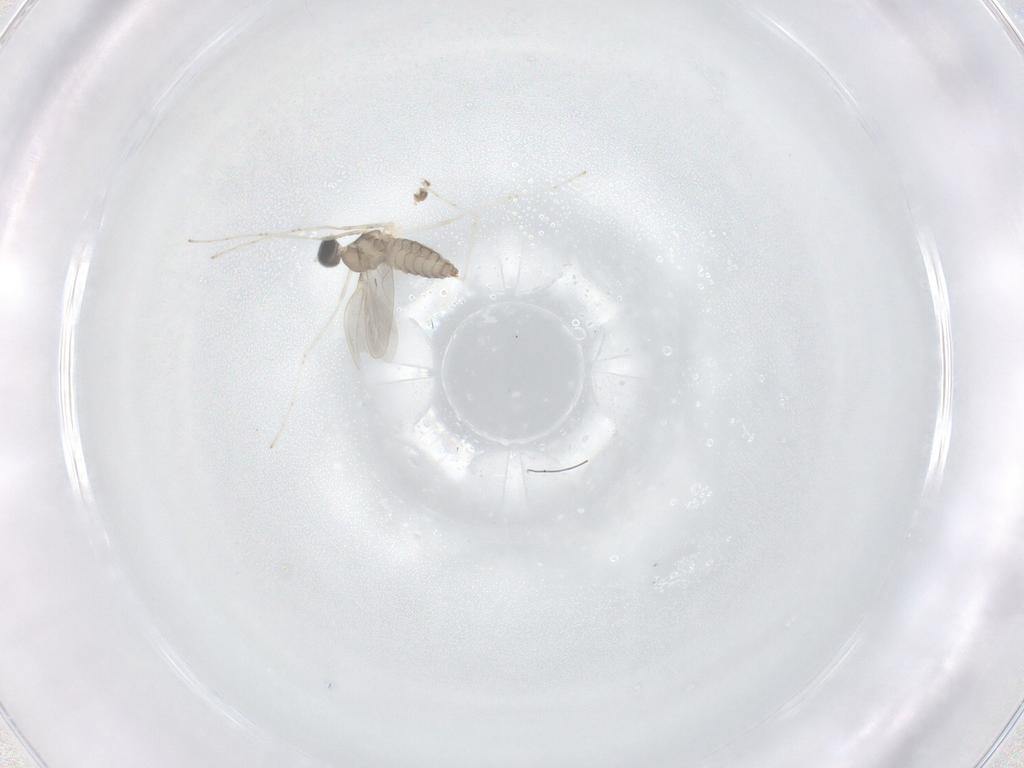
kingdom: Animalia
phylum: Arthropoda
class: Insecta
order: Diptera
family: Cecidomyiidae
